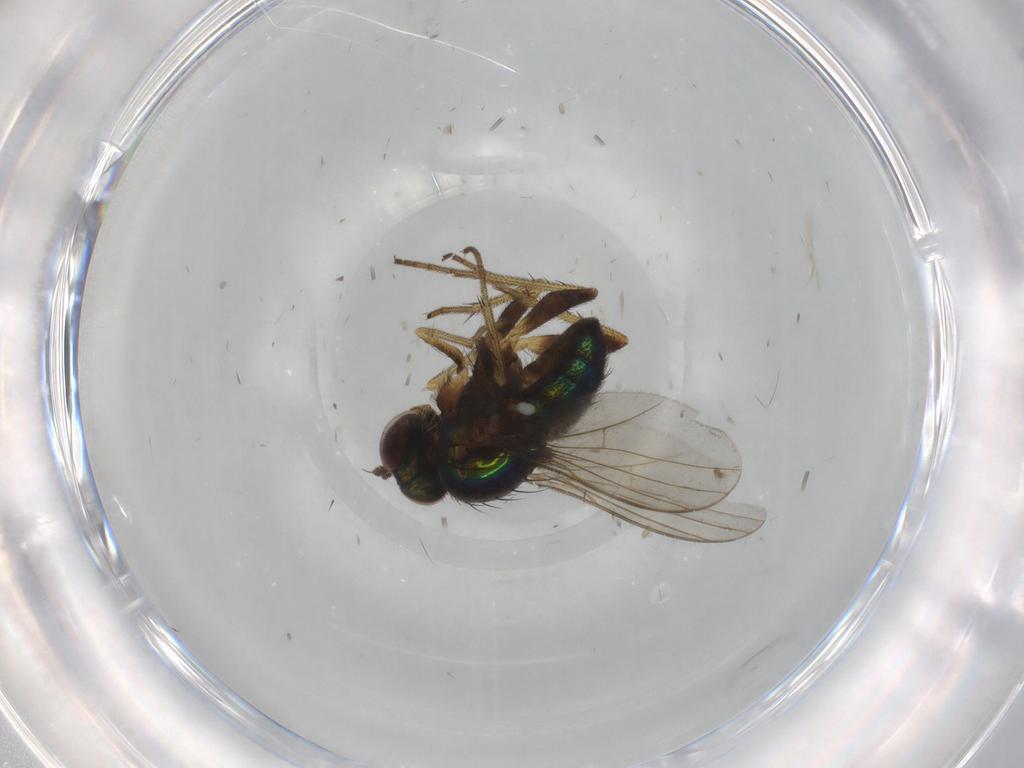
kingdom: Animalia
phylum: Arthropoda
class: Insecta
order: Diptera
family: Dolichopodidae
